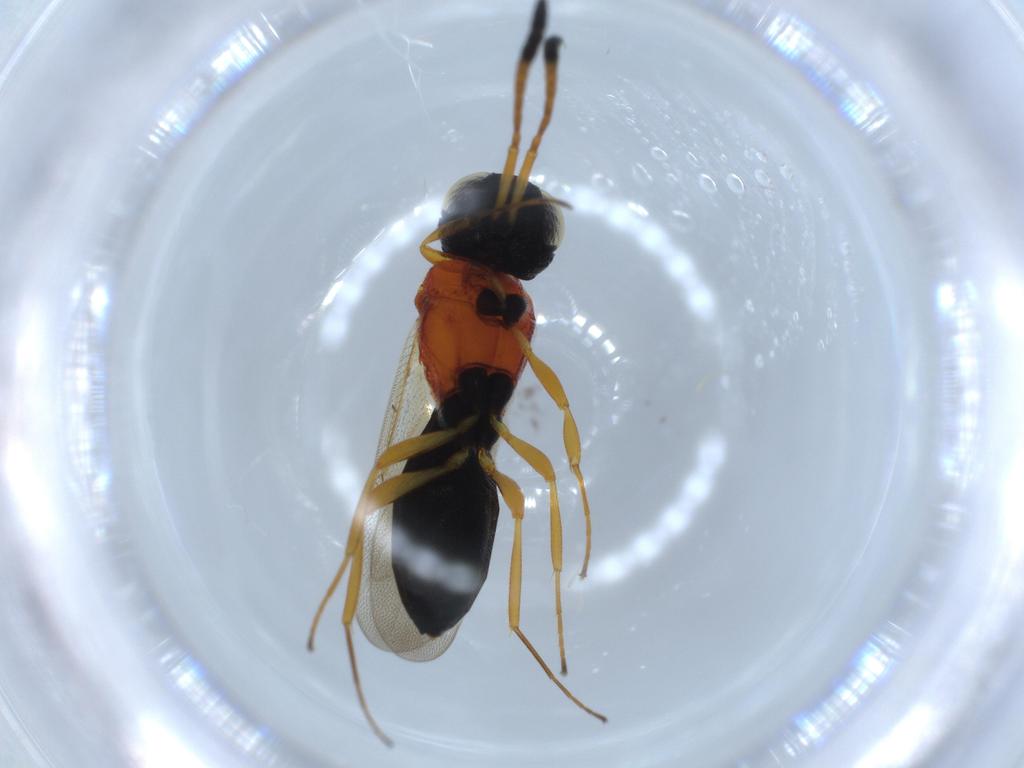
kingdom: Animalia
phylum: Arthropoda
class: Insecta
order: Hymenoptera
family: Scelionidae
